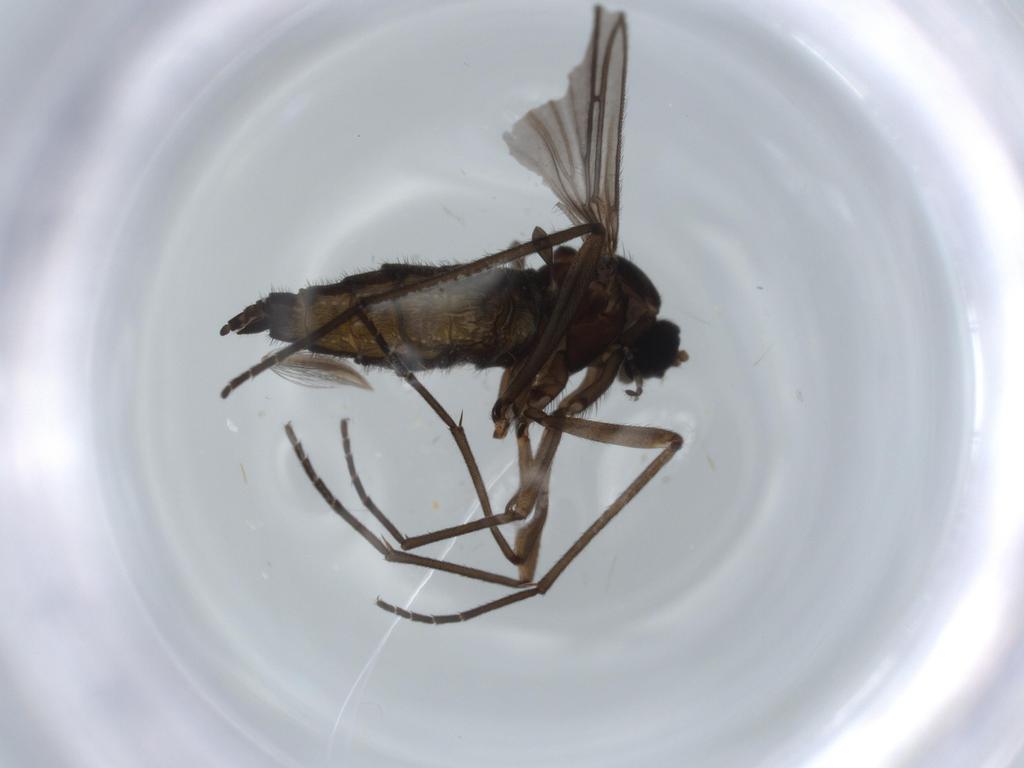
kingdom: Animalia
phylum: Arthropoda
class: Insecta
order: Diptera
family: Sciaridae
